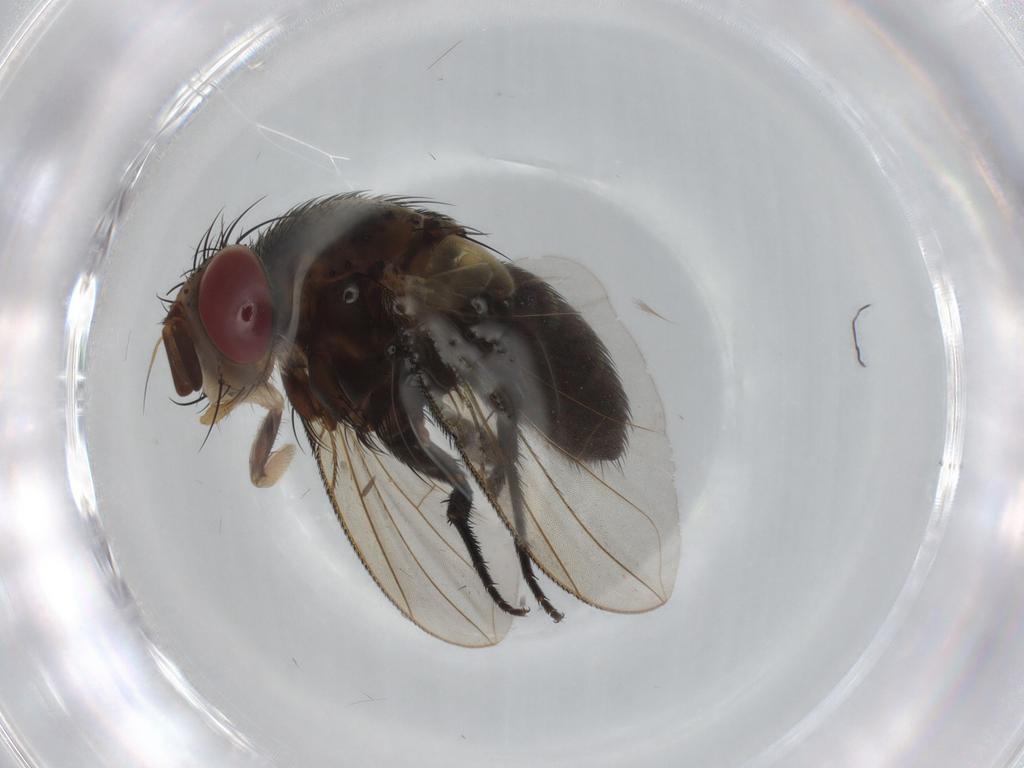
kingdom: Animalia
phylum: Arthropoda
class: Insecta
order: Diptera
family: Tachinidae
